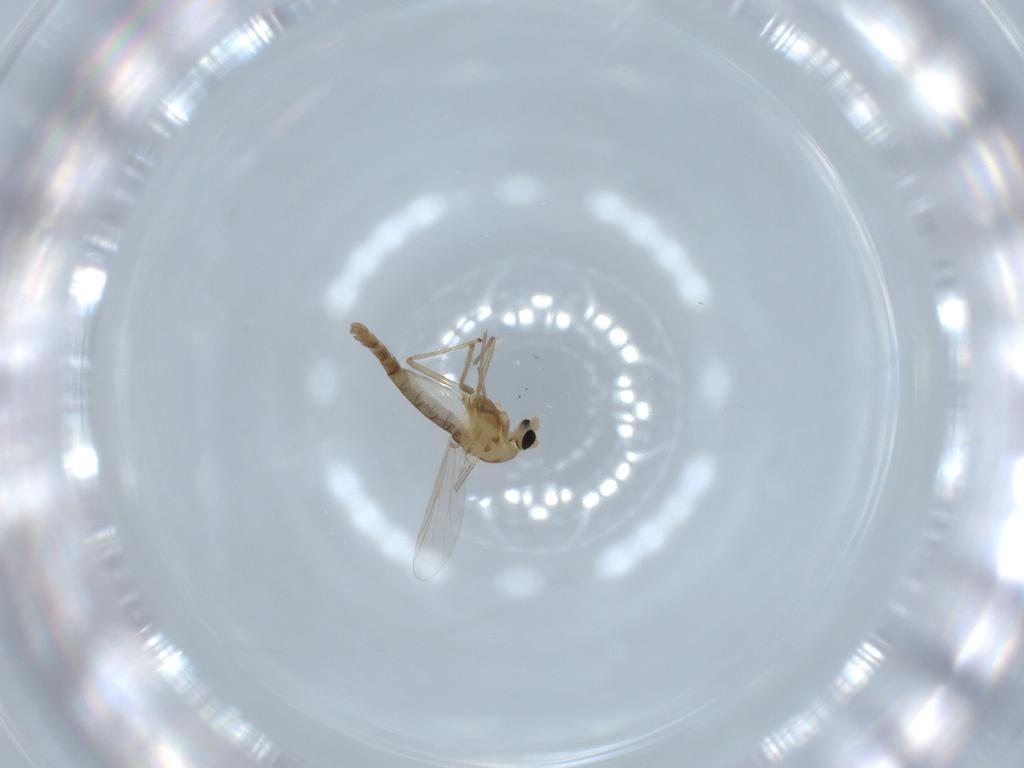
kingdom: Animalia
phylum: Arthropoda
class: Insecta
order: Diptera
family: Chironomidae
